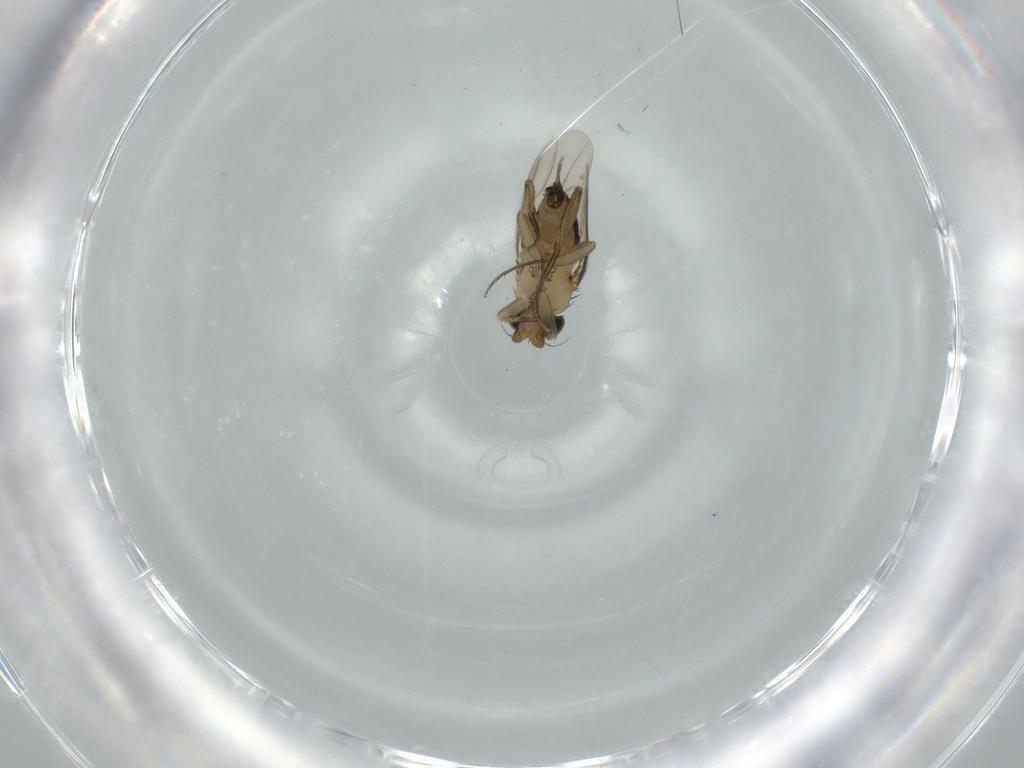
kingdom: Animalia
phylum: Arthropoda
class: Insecta
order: Diptera
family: Phoridae
